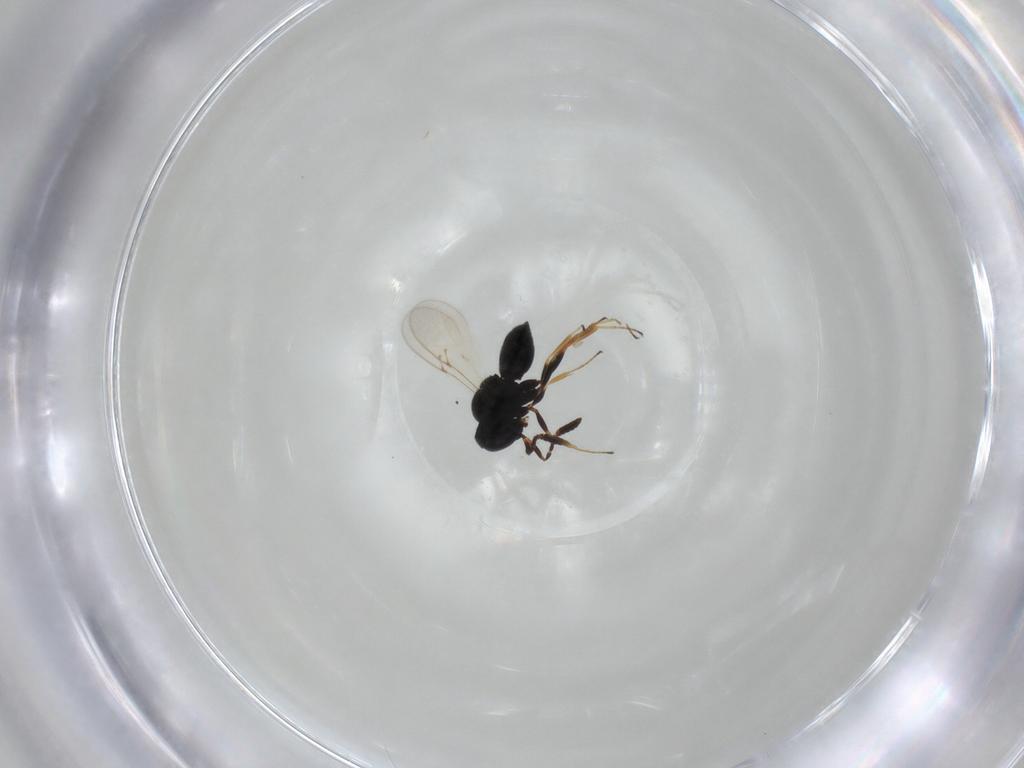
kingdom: Animalia
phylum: Arthropoda
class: Insecta
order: Hymenoptera
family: Scelionidae
